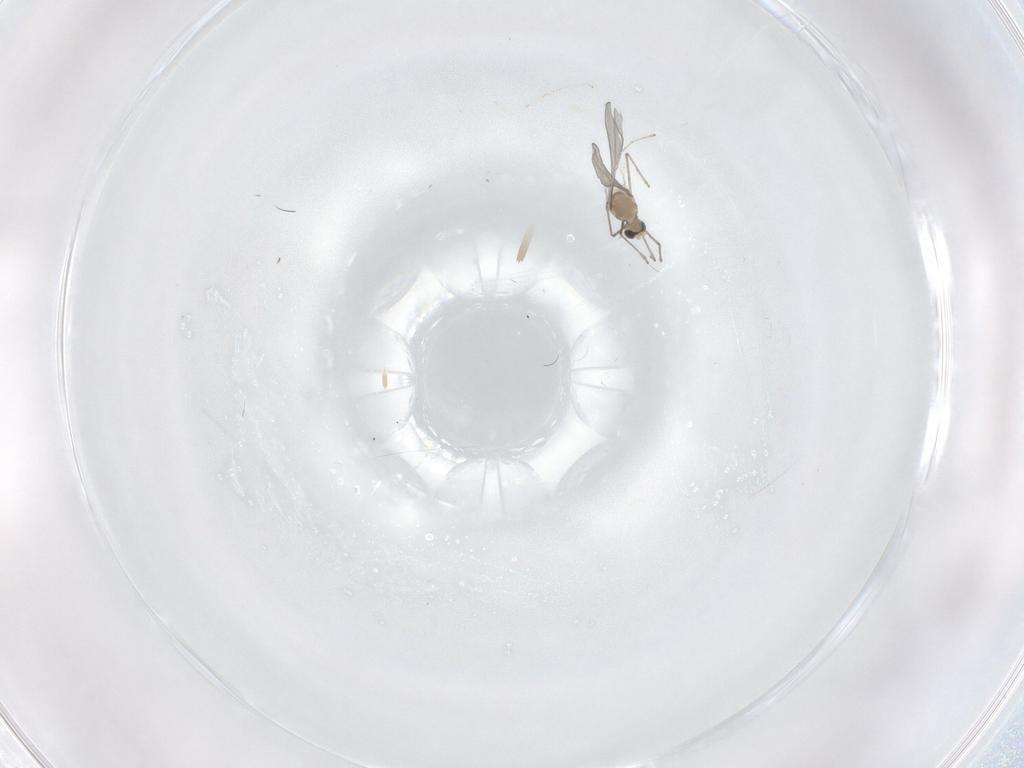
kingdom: Animalia
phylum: Arthropoda
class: Insecta
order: Diptera
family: Cecidomyiidae
